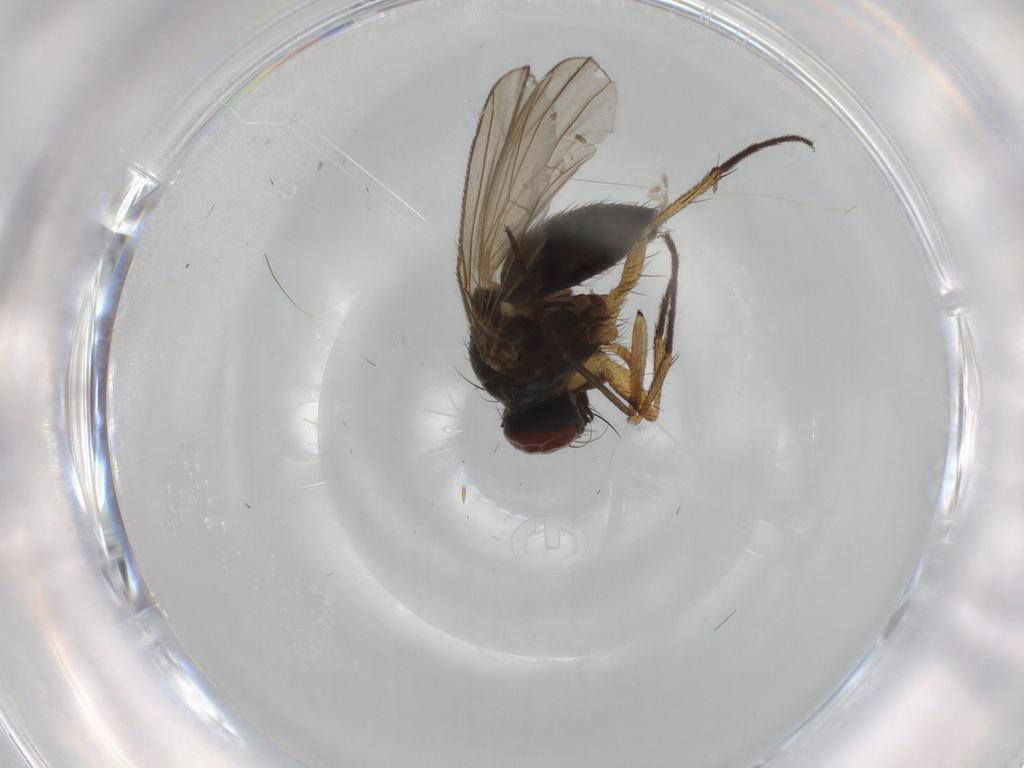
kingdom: Animalia
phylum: Arthropoda
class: Insecta
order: Diptera
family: Muscidae
